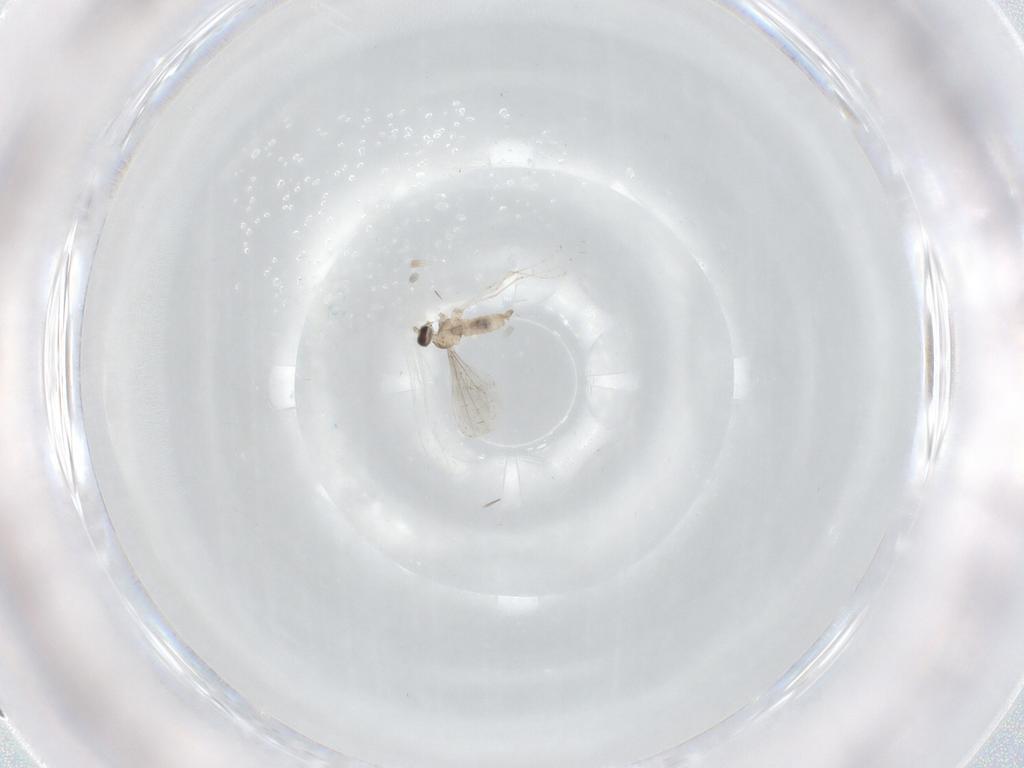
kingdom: Animalia
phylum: Arthropoda
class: Insecta
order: Diptera
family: Cecidomyiidae
